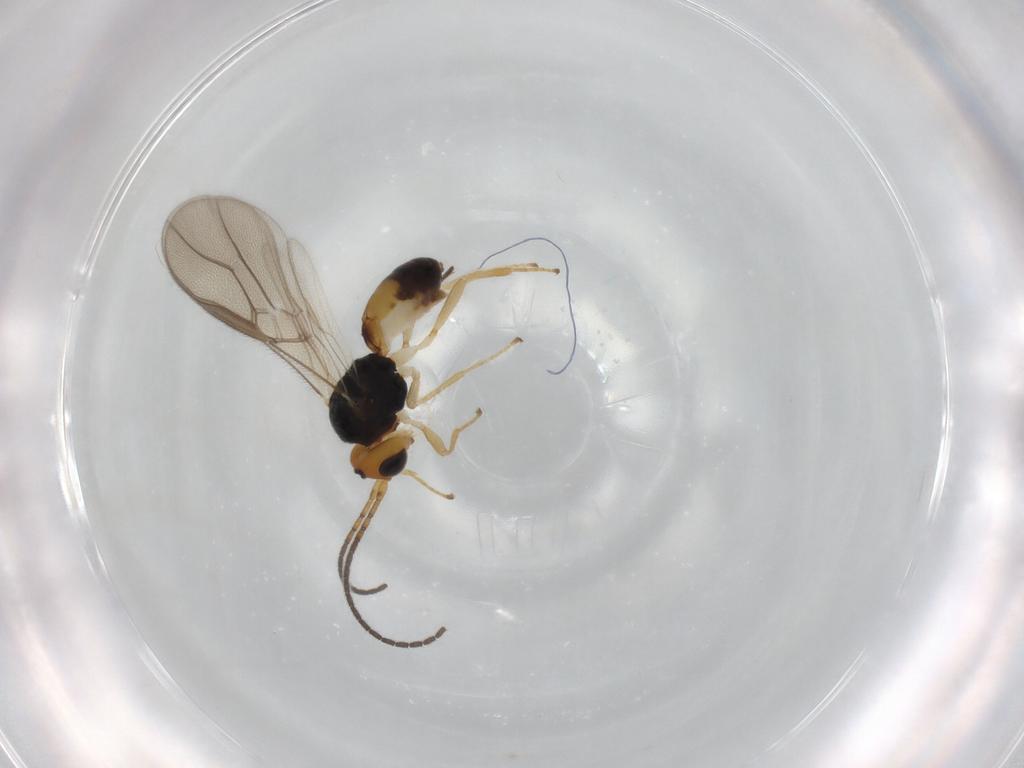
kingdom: Animalia
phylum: Arthropoda
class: Insecta
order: Hymenoptera
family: Braconidae
